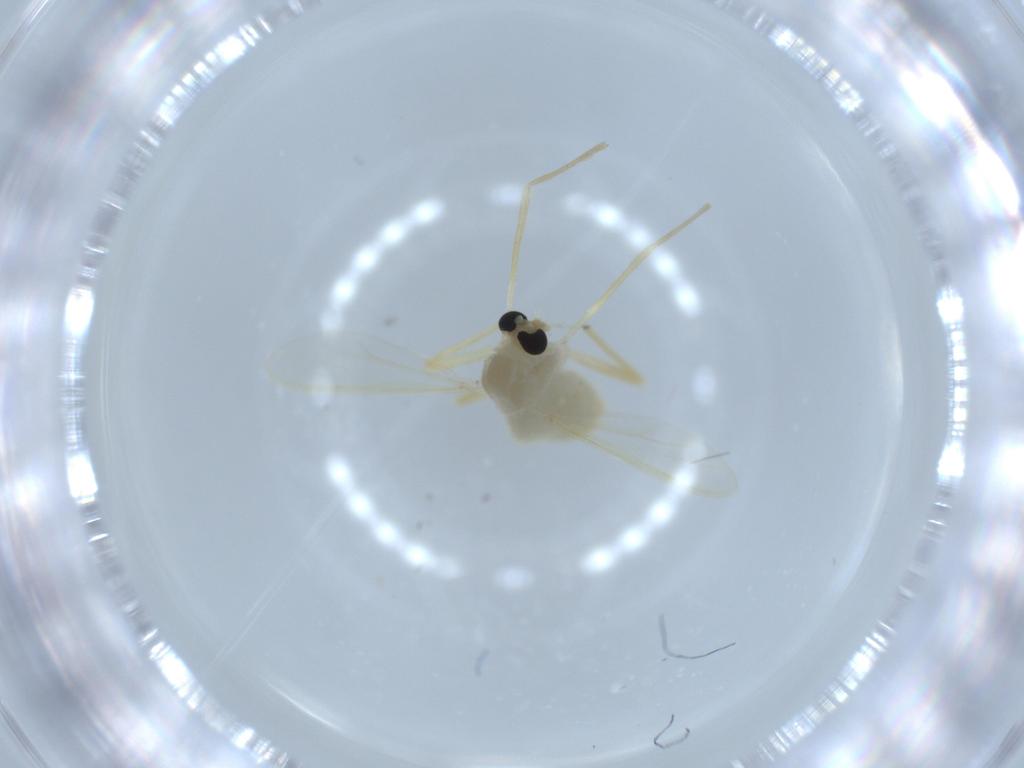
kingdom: Animalia
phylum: Arthropoda
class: Insecta
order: Diptera
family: Chironomidae
